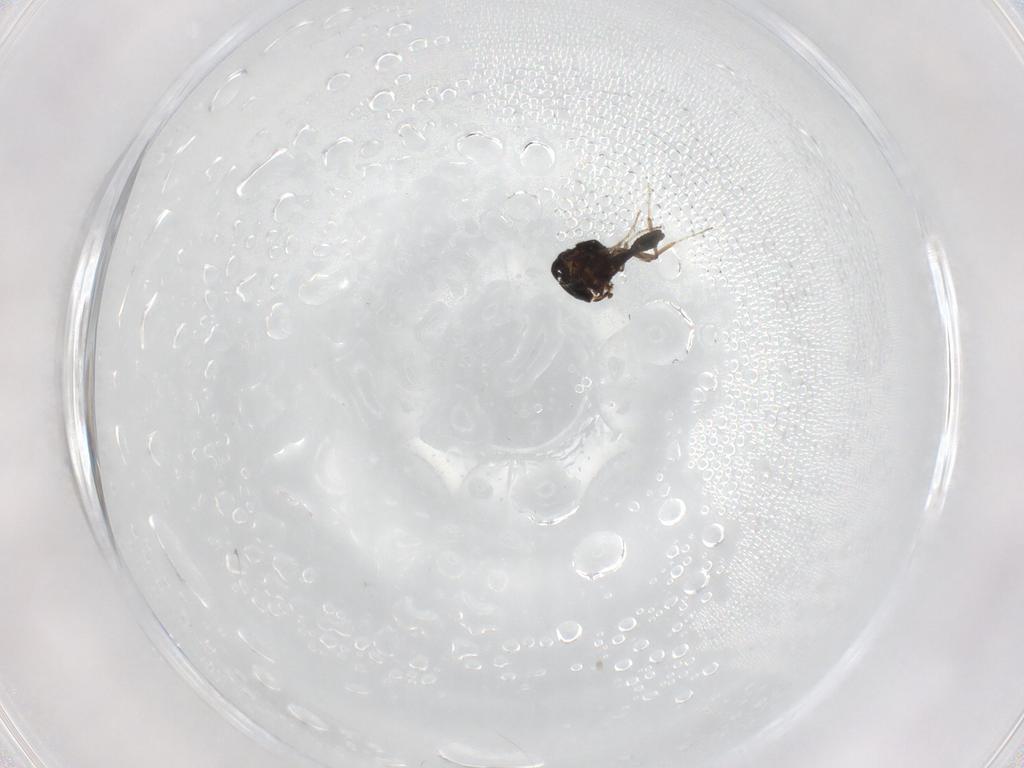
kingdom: Animalia
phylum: Arthropoda
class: Insecta
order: Diptera
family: Ceratopogonidae
